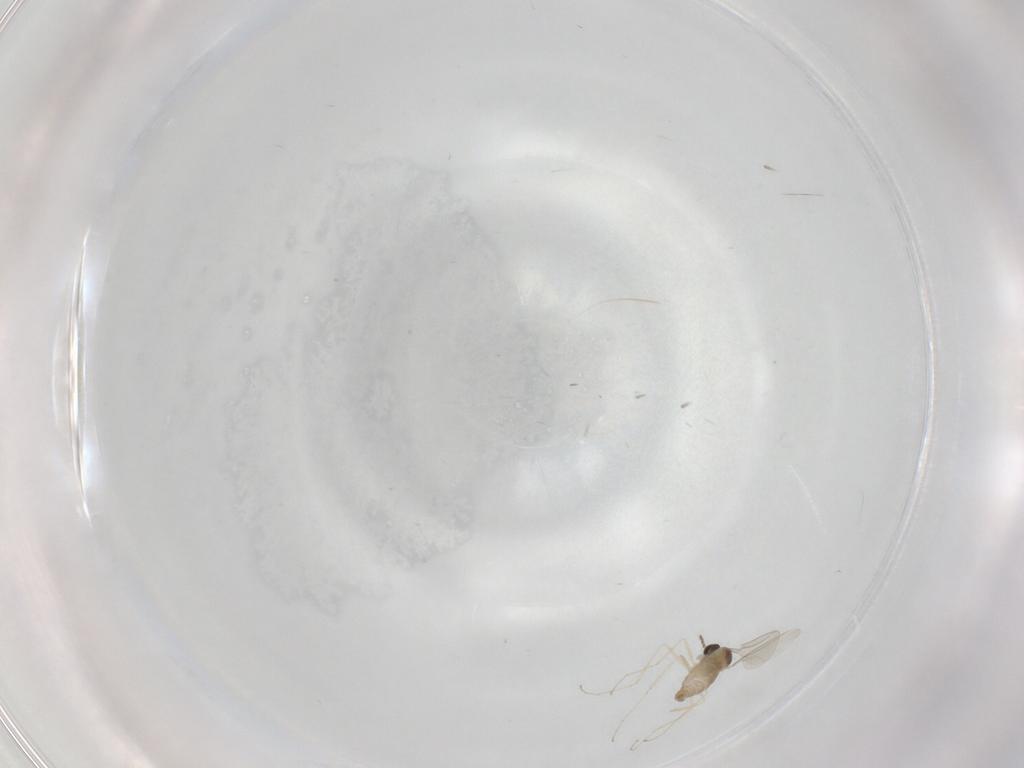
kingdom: Animalia
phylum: Arthropoda
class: Insecta
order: Diptera
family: Cecidomyiidae
